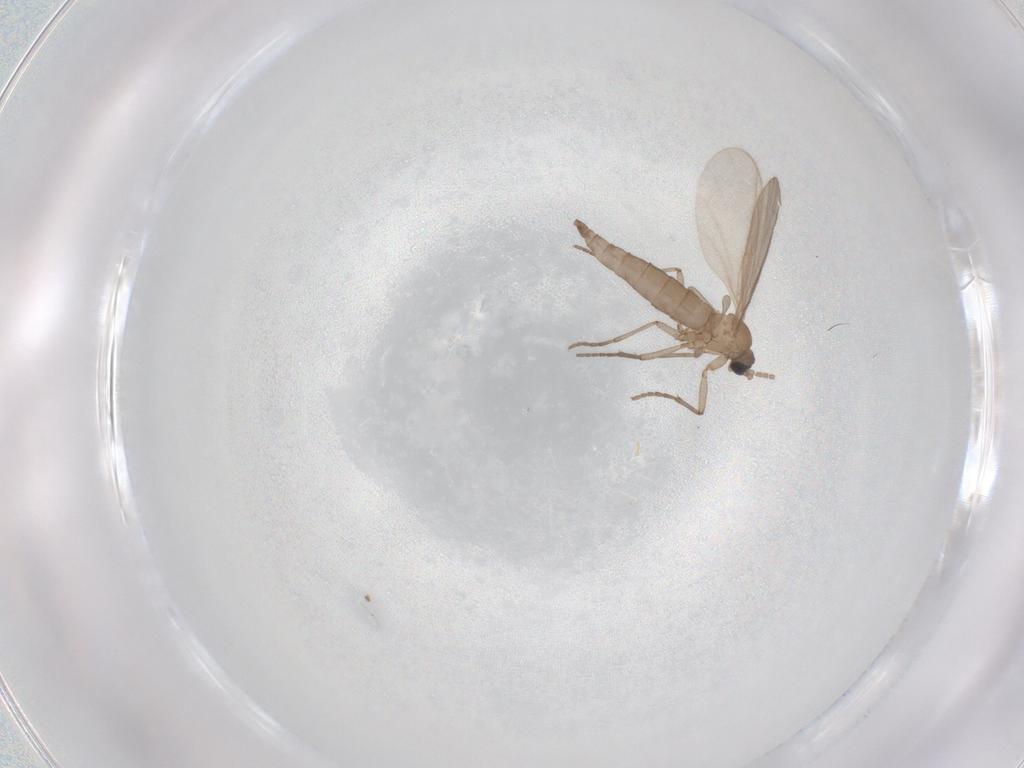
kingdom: Animalia
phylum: Arthropoda
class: Insecta
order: Diptera
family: Sciaridae
